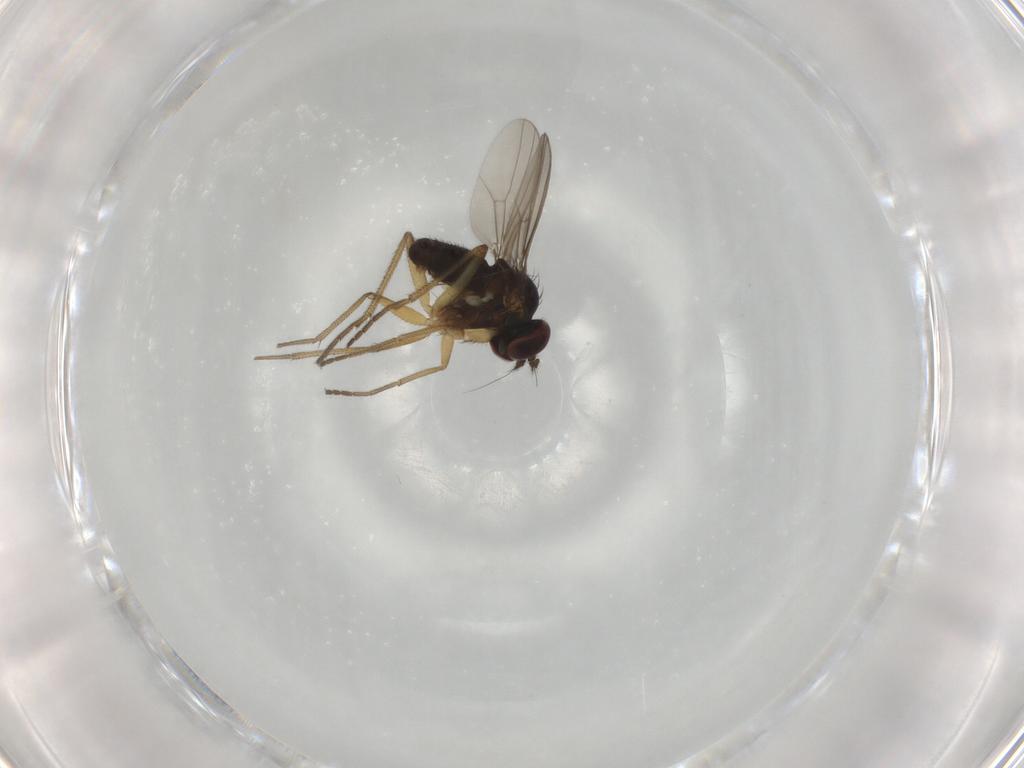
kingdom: Animalia
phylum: Arthropoda
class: Insecta
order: Diptera
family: Dolichopodidae
